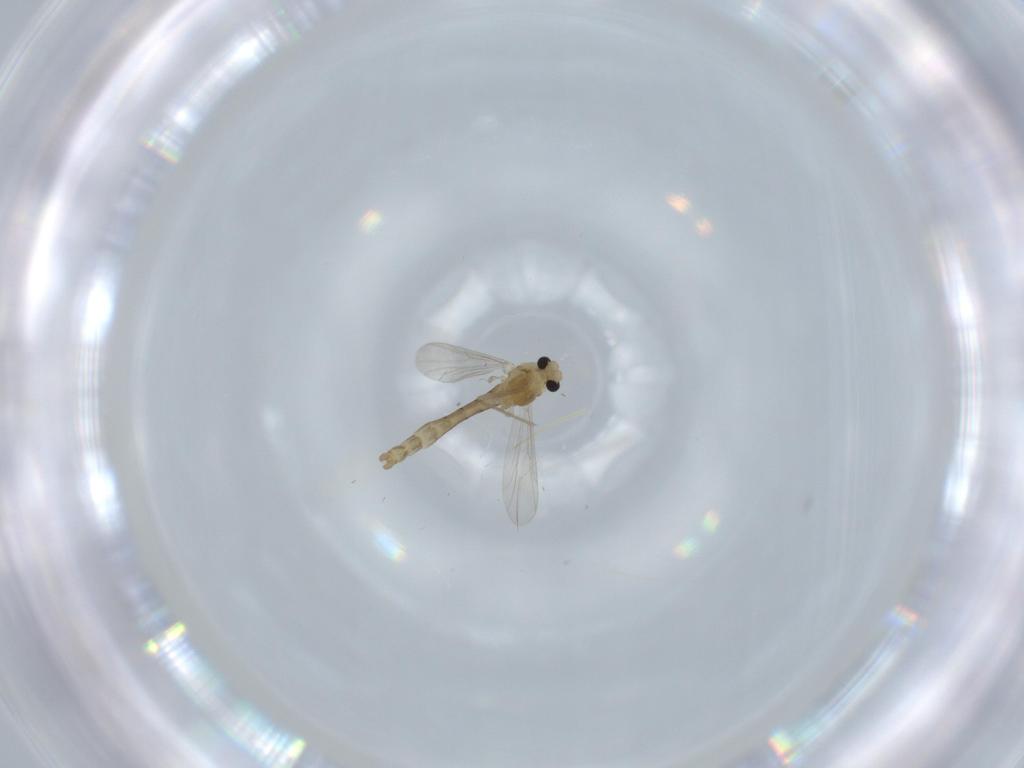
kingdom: Animalia
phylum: Arthropoda
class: Insecta
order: Diptera
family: Chironomidae
